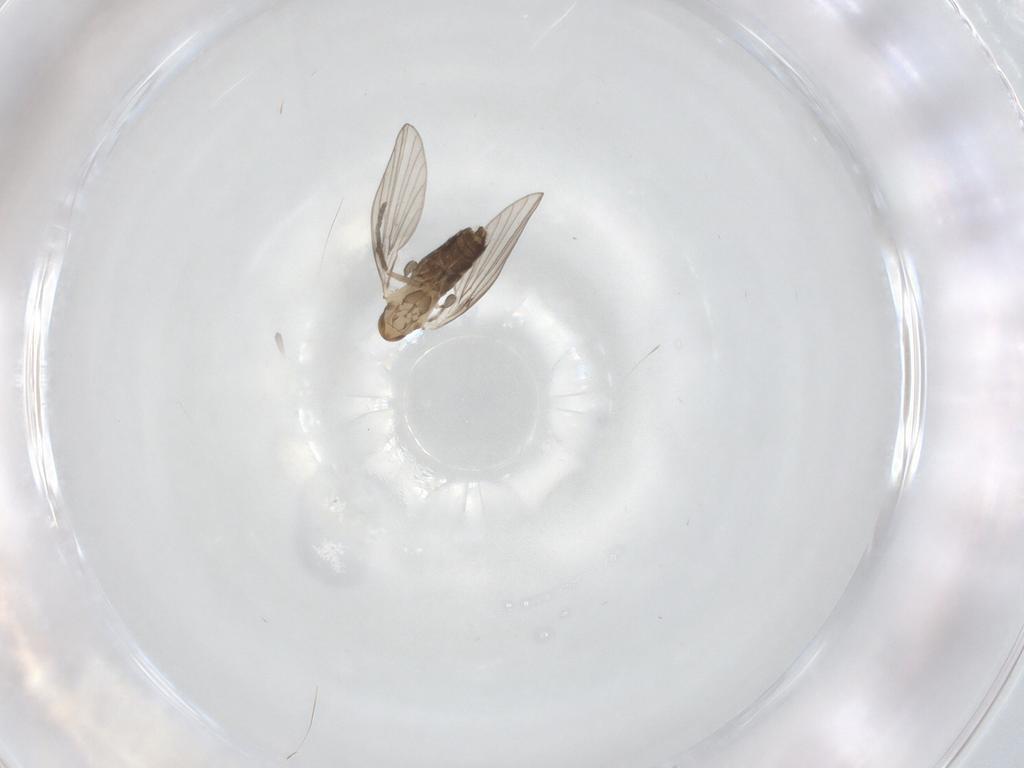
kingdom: Animalia
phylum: Arthropoda
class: Insecta
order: Diptera
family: Psychodidae
